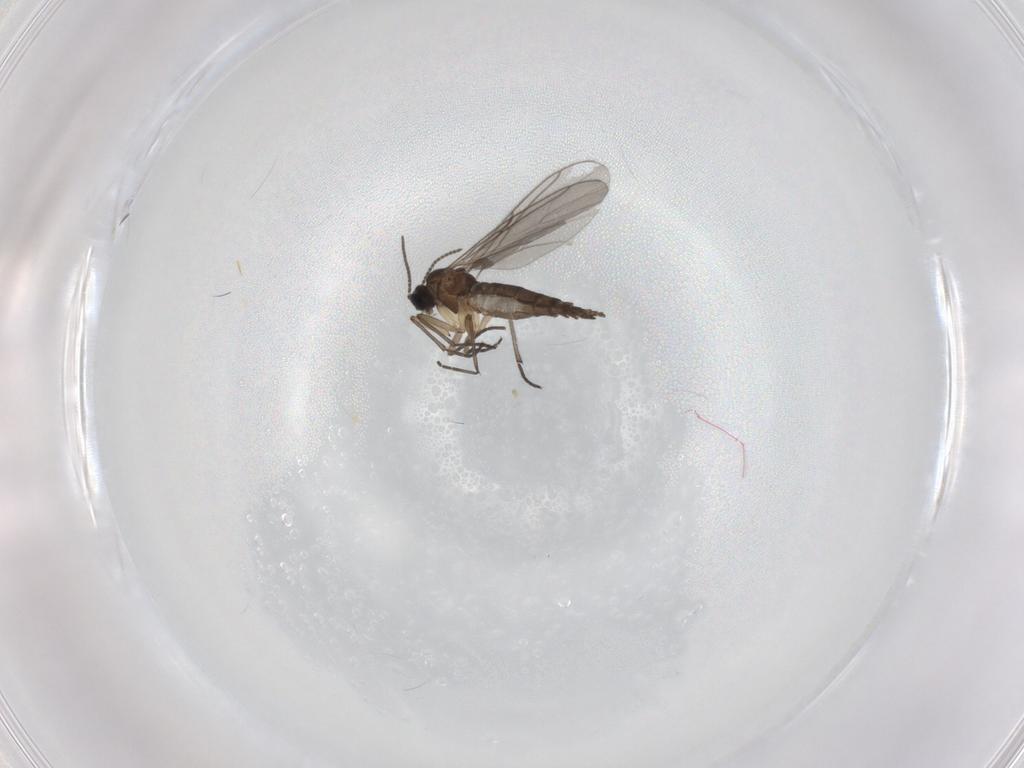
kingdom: Animalia
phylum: Arthropoda
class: Insecta
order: Diptera
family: Sciaridae
